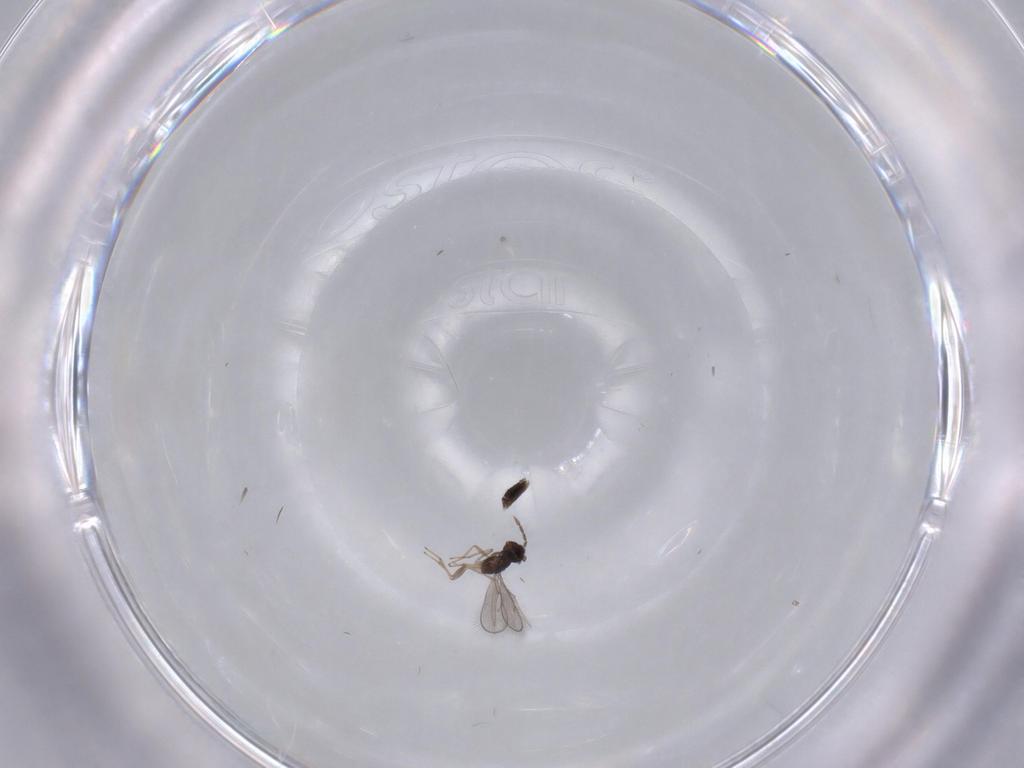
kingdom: Animalia
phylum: Arthropoda
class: Insecta
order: Hymenoptera
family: Eulophidae
